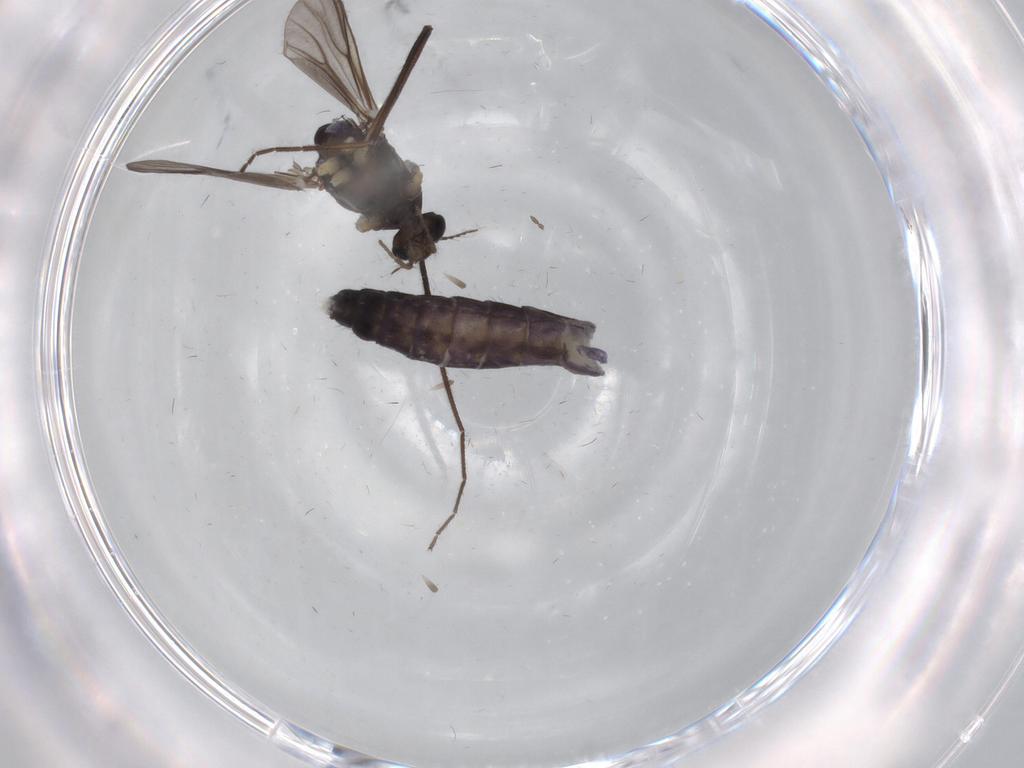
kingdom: Animalia
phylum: Arthropoda
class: Insecta
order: Diptera
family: Chironomidae
